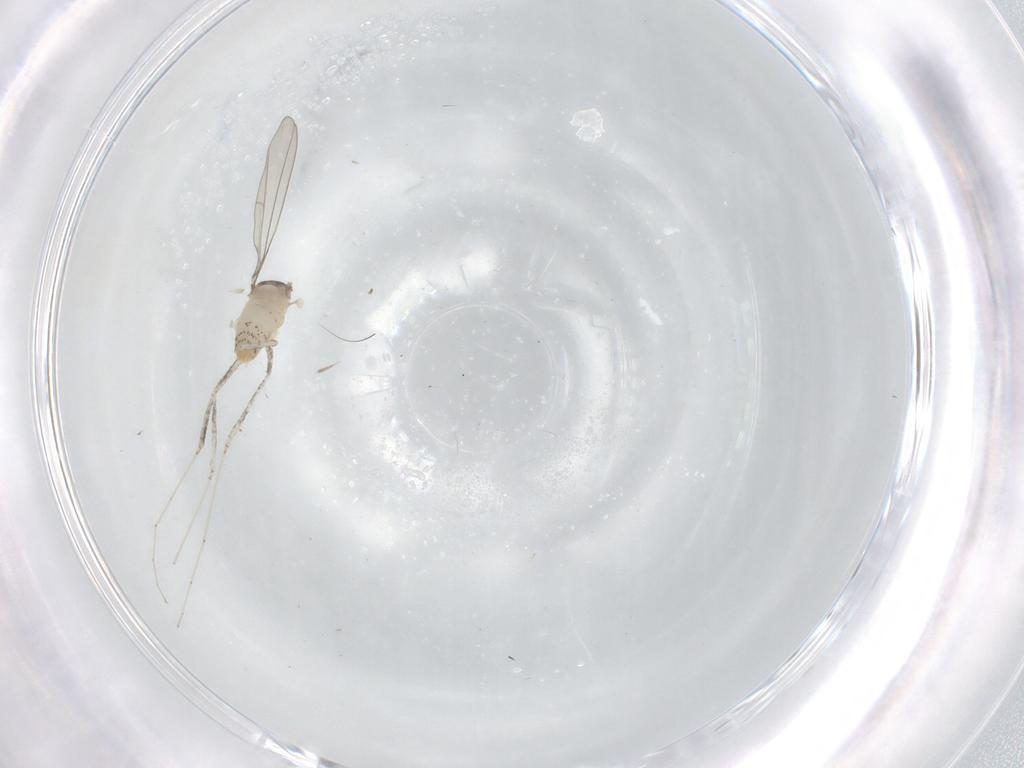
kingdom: Animalia
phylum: Arthropoda
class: Insecta
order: Diptera
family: Cecidomyiidae
